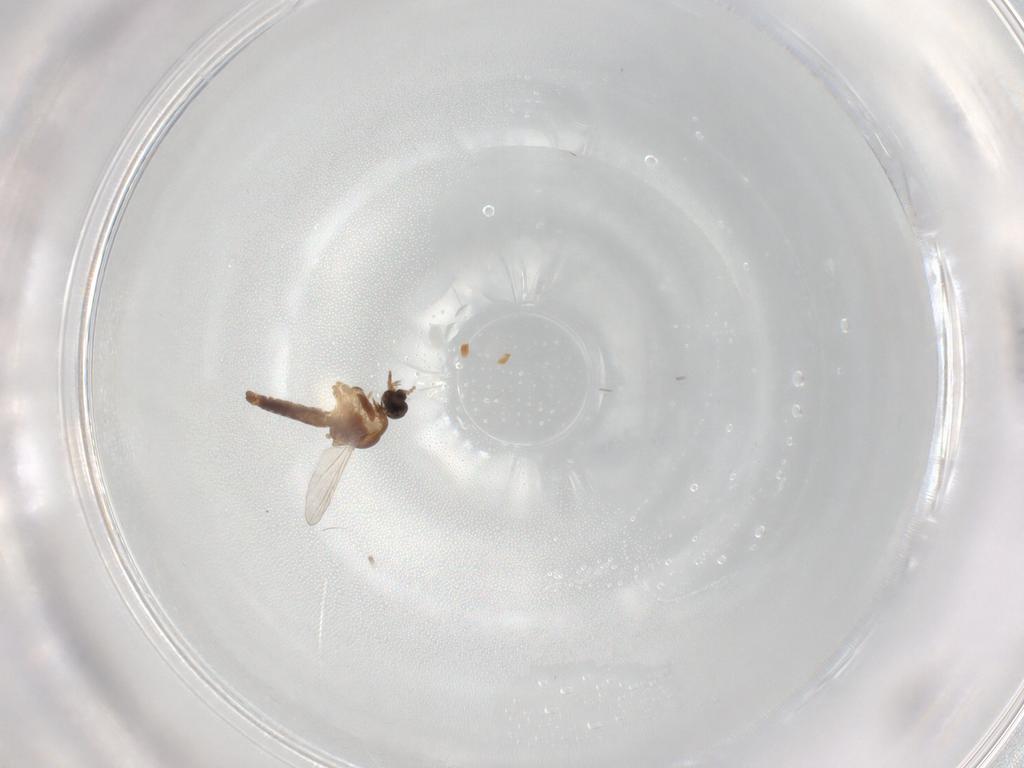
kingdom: Animalia
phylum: Arthropoda
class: Insecta
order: Diptera
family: Ceratopogonidae
